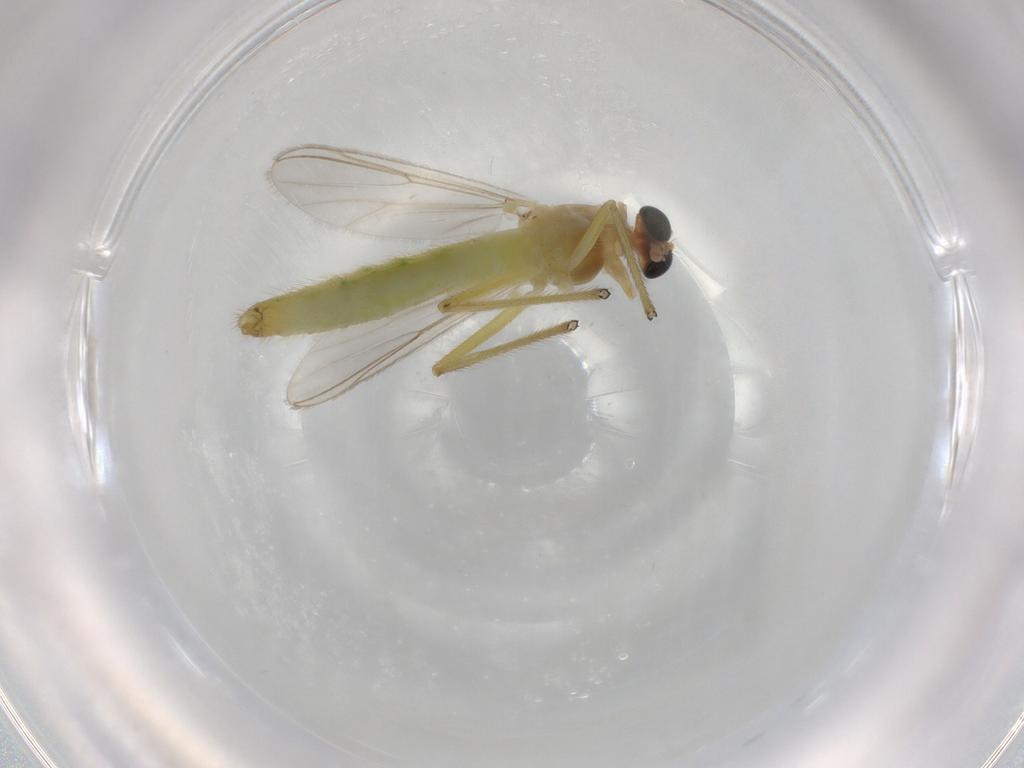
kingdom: Animalia
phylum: Arthropoda
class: Insecta
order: Diptera
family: Chironomidae
